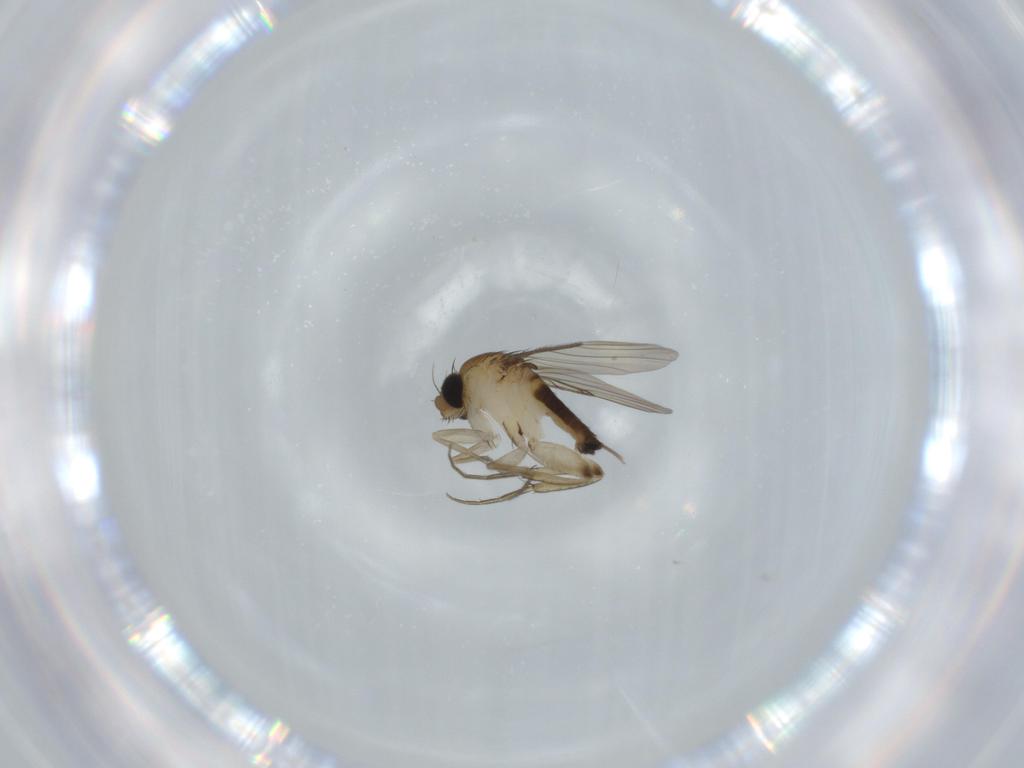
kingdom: Animalia
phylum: Arthropoda
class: Insecta
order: Diptera
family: Phoridae
